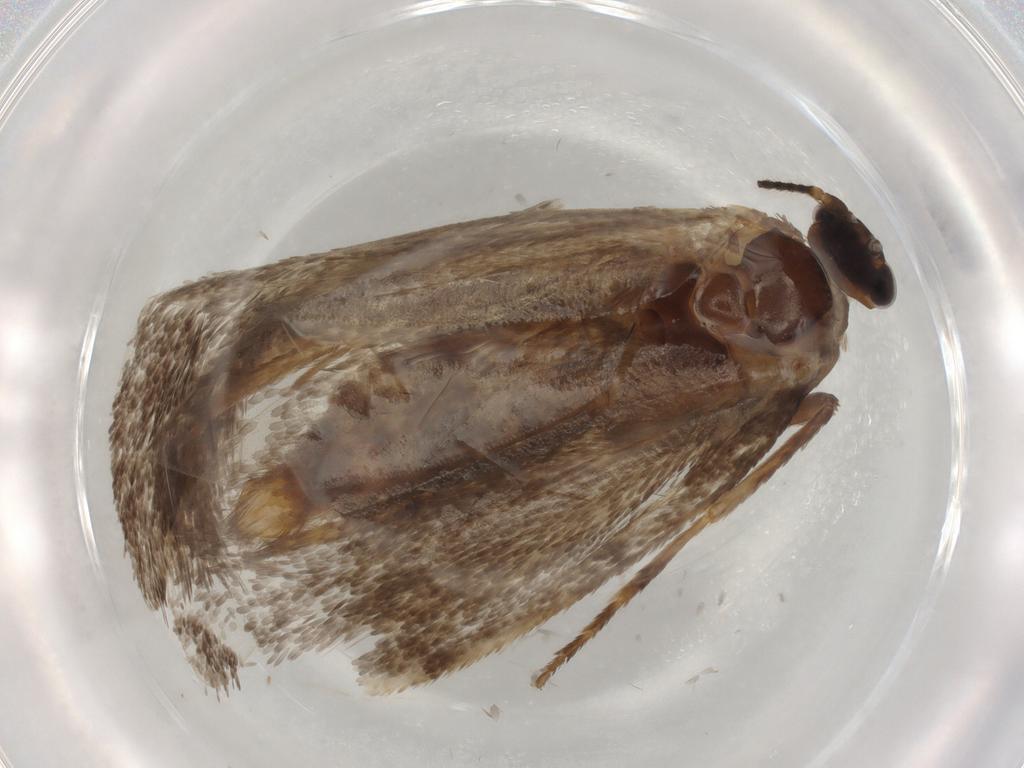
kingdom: Animalia
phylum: Arthropoda
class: Insecta
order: Lepidoptera
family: Eriocottidae
